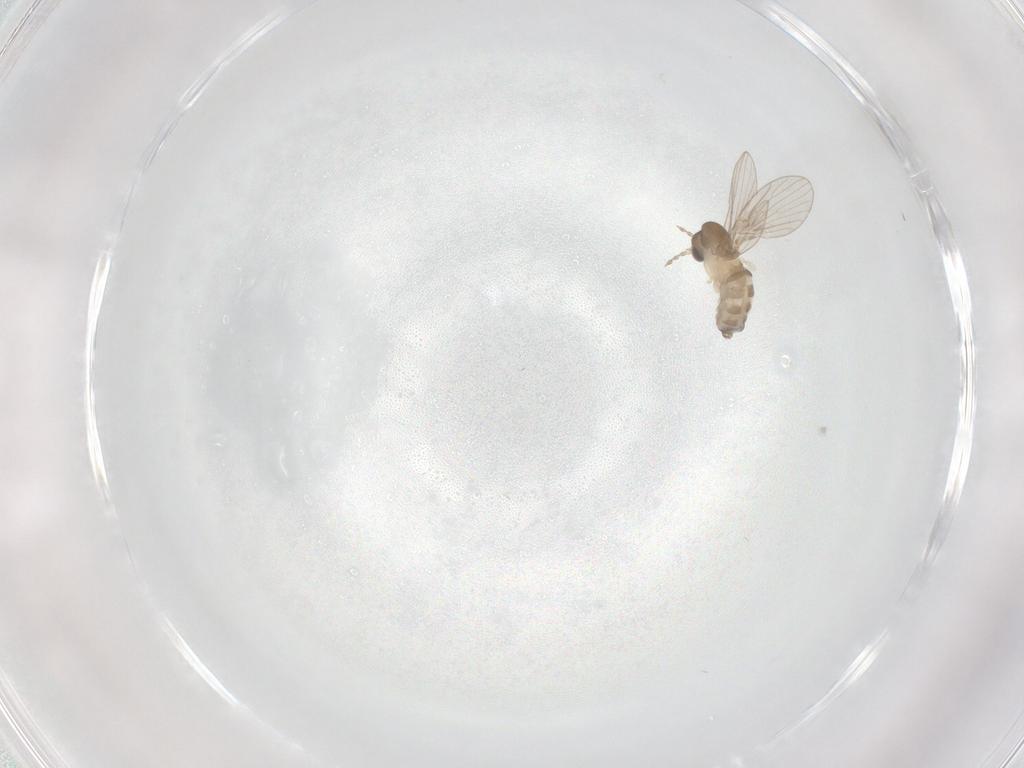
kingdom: Animalia
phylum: Arthropoda
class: Insecta
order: Diptera
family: Psychodidae
